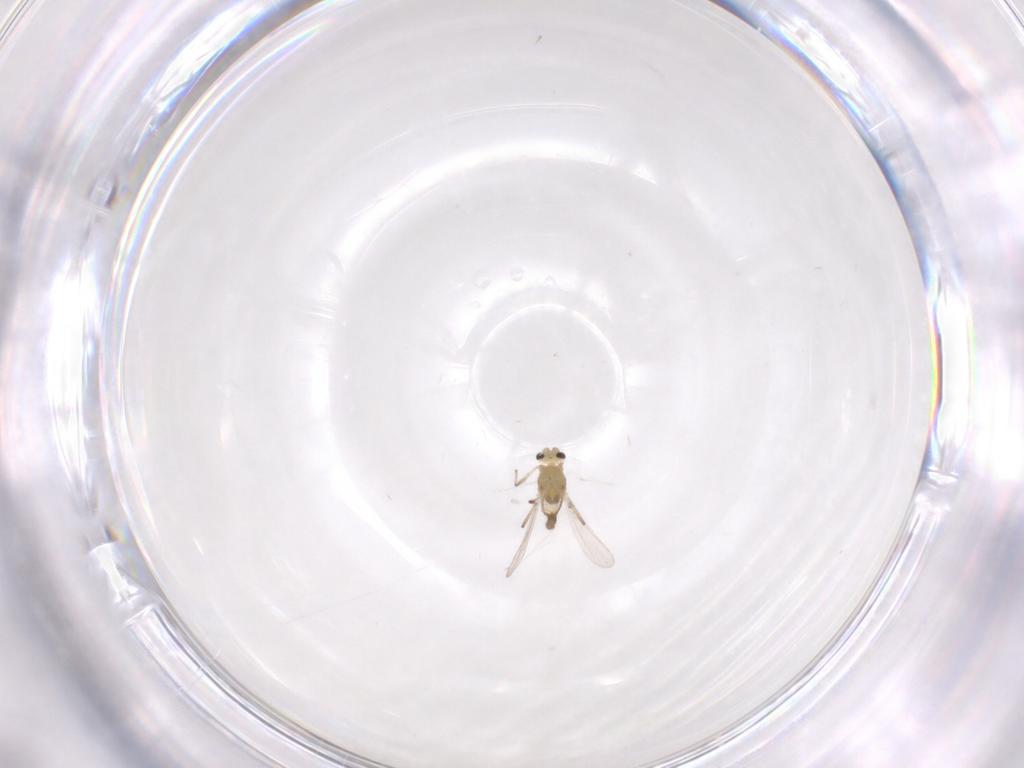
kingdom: Animalia
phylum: Arthropoda
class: Insecta
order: Diptera
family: Chironomidae
